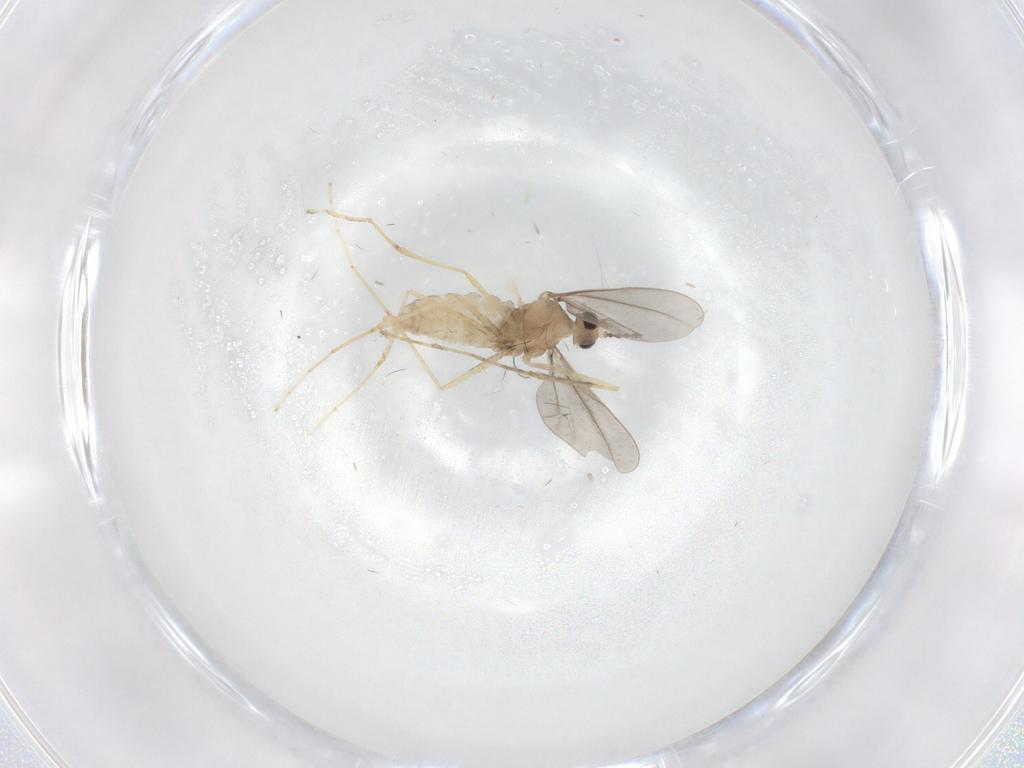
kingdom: Animalia
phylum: Arthropoda
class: Insecta
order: Diptera
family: Cecidomyiidae
